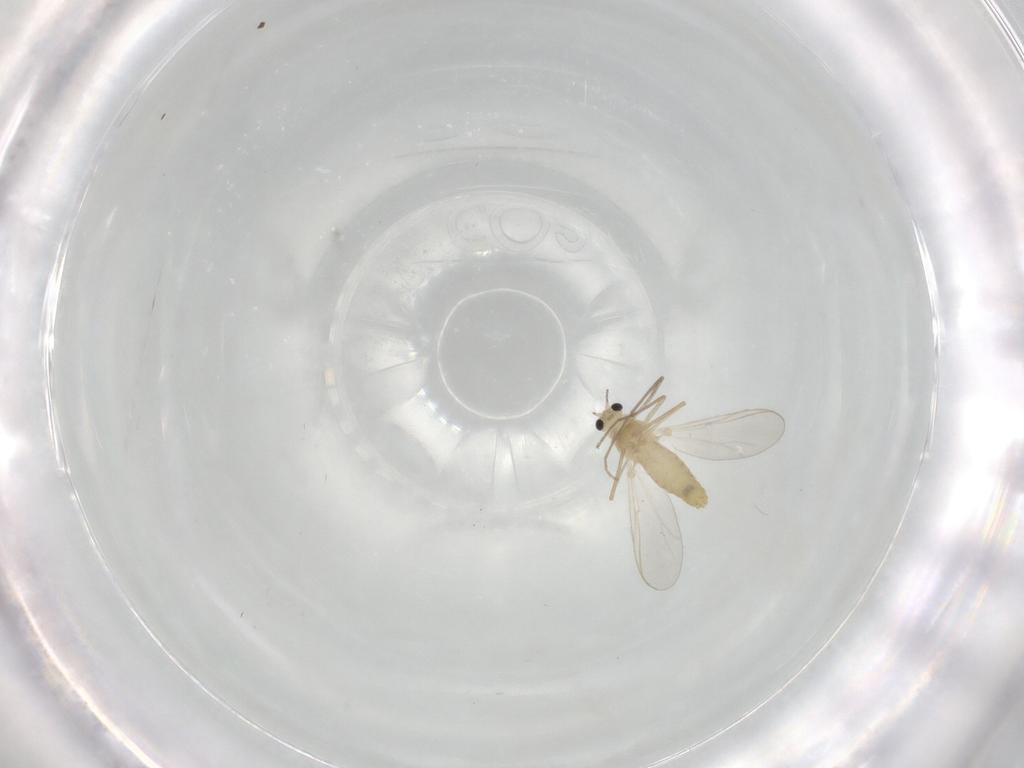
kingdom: Animalia
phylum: Arthropoda
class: Insecta
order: Diptera
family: Chironomidae
